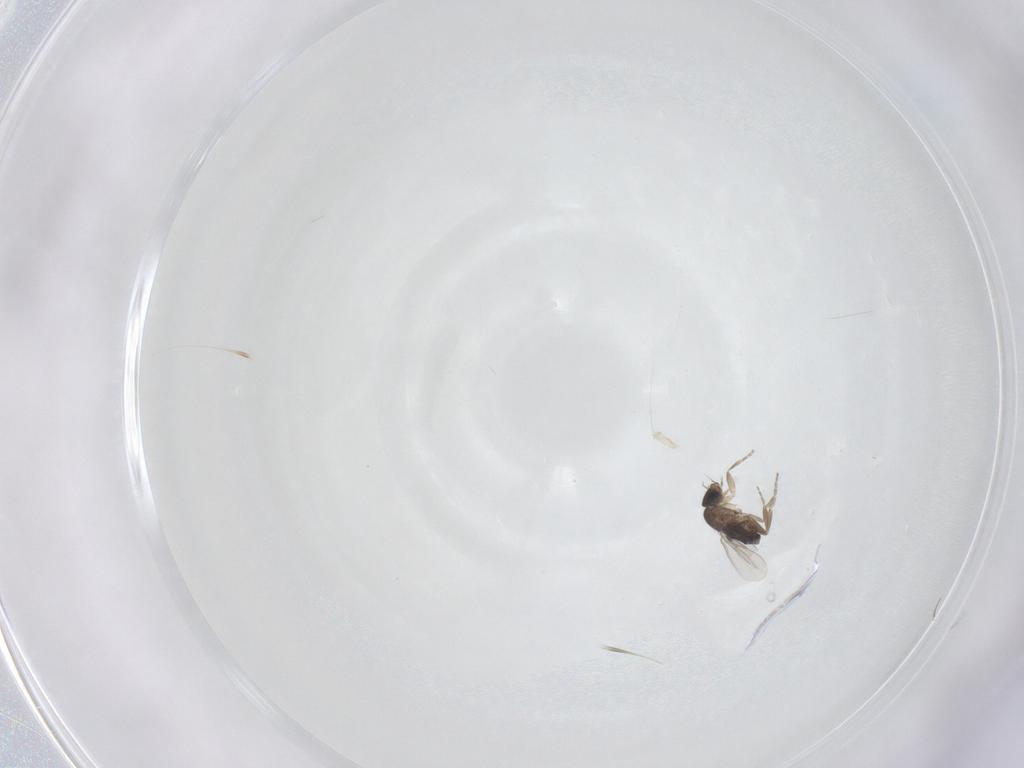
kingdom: Animalia
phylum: Arthropoda
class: Insecta
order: Diptera
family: Phoridae
